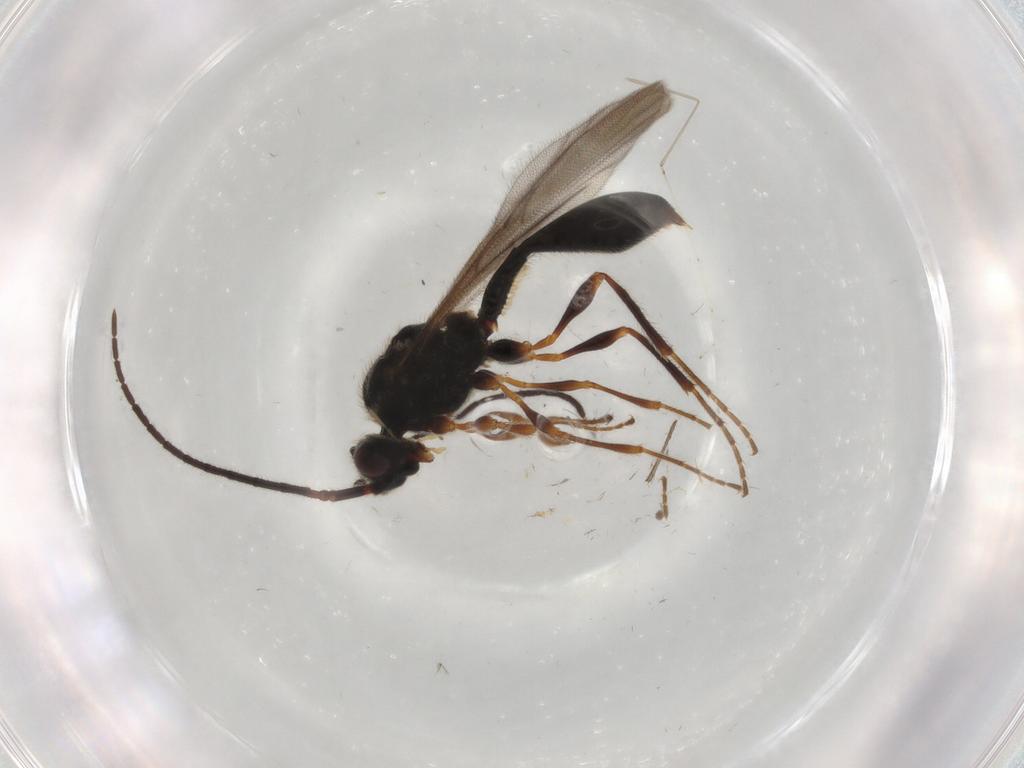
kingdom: Animalia
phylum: Arthropoda
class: Insecta
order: Hymenoptera
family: Diapriidae
